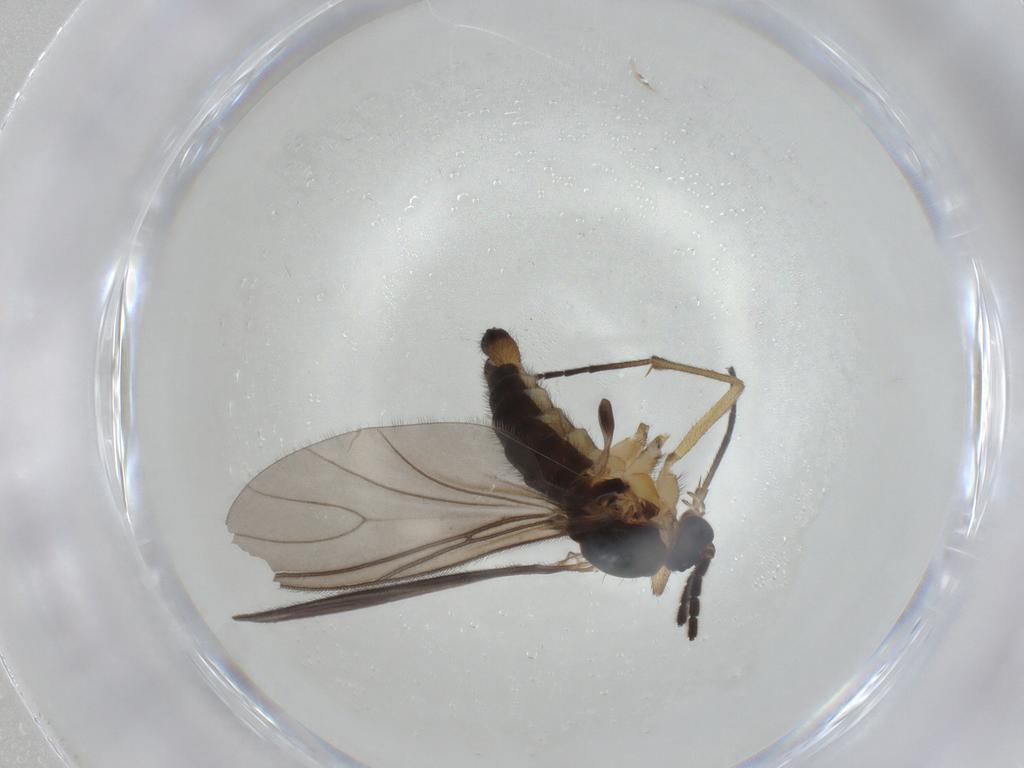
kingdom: Animalia
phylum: Arthropoda
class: Insecta
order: Diptera
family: Sciaridae
